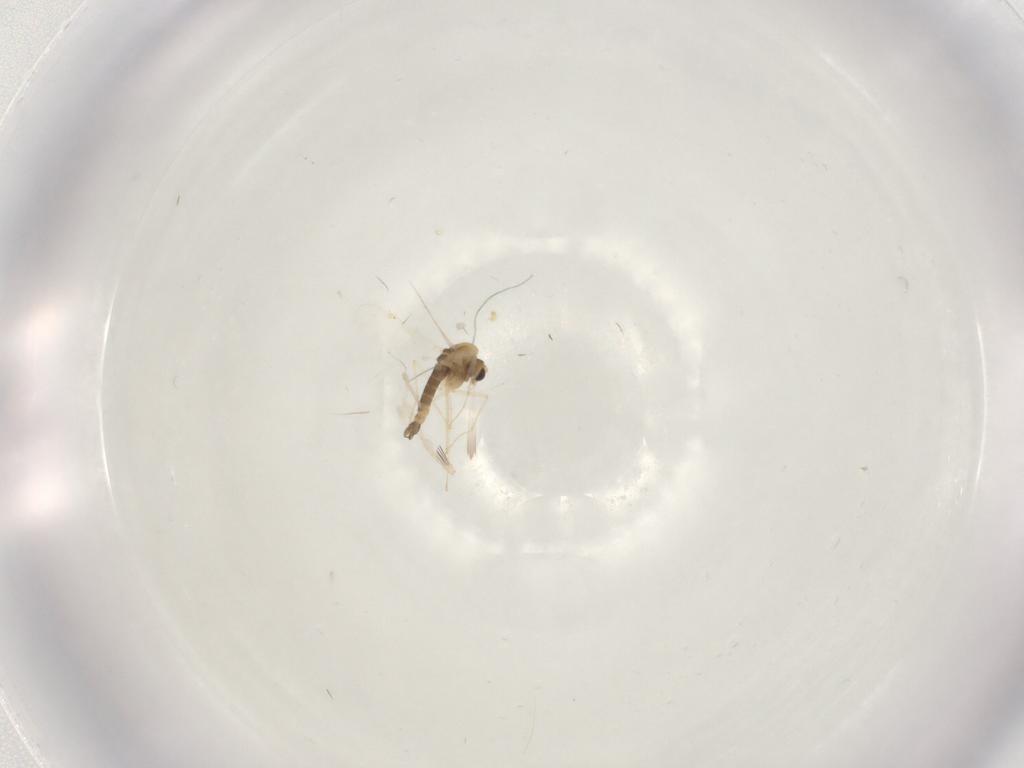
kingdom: Animalia
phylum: Arthropoda
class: Insecta
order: Diptera
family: Chironomidae
